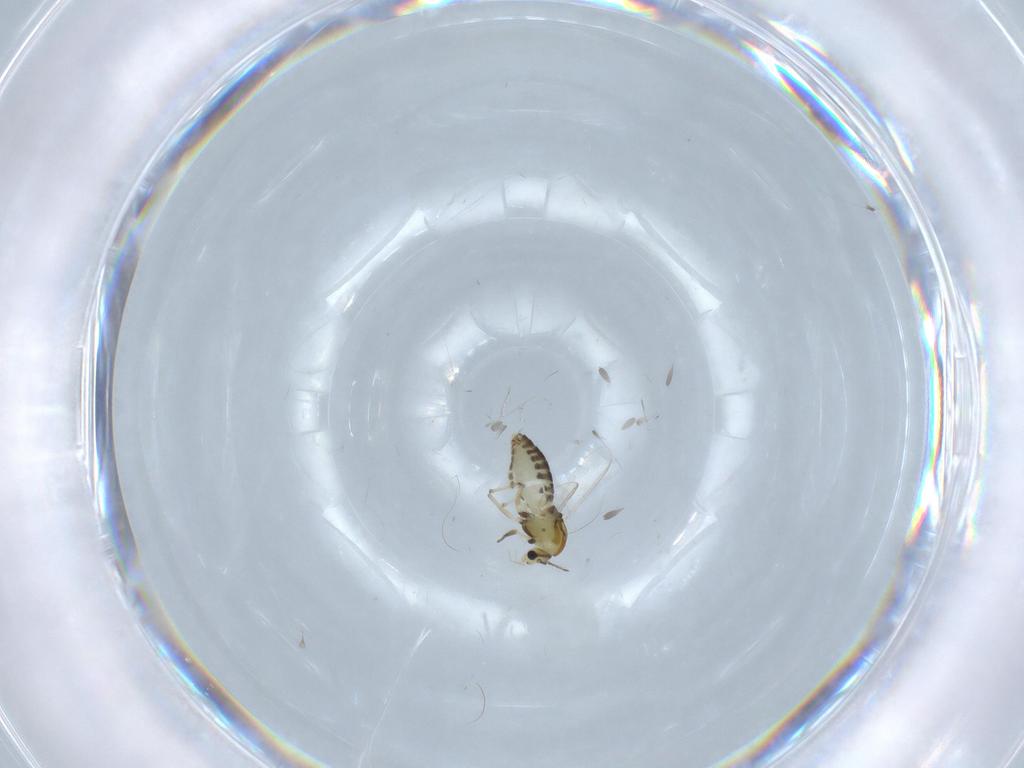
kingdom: Animalia
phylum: Arthropoda
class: Insecta
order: Diptera
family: Chironomidae
